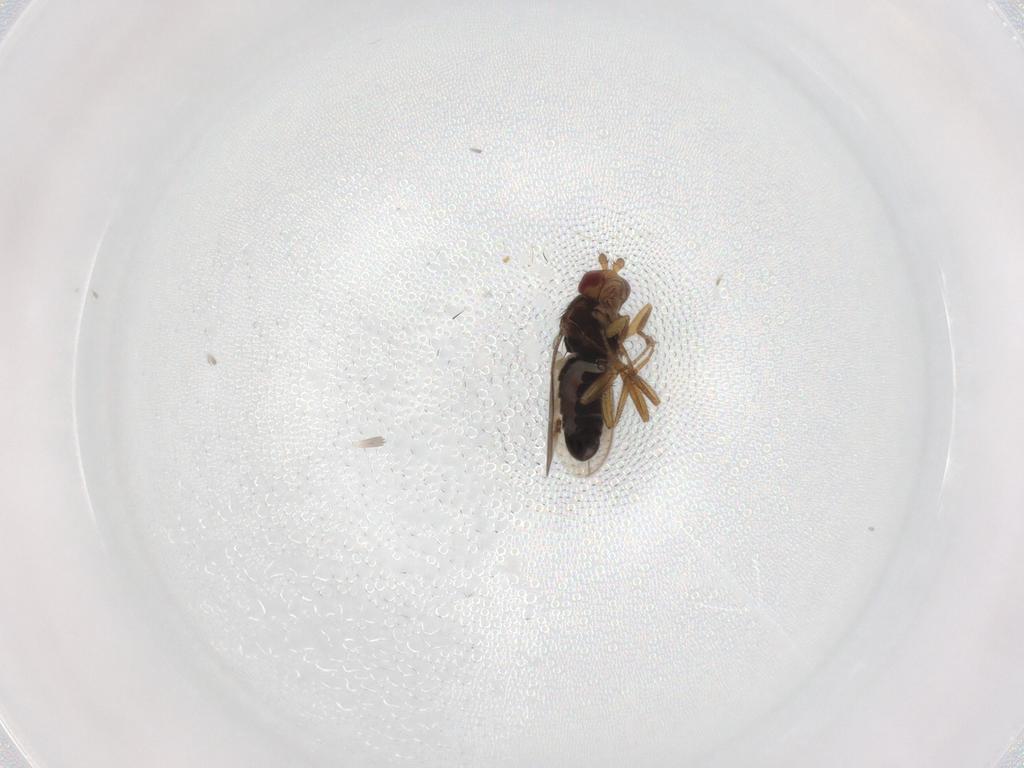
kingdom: Animalia
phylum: Arthropoda
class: Insecta
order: Diptera
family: Sphaeroceridae
